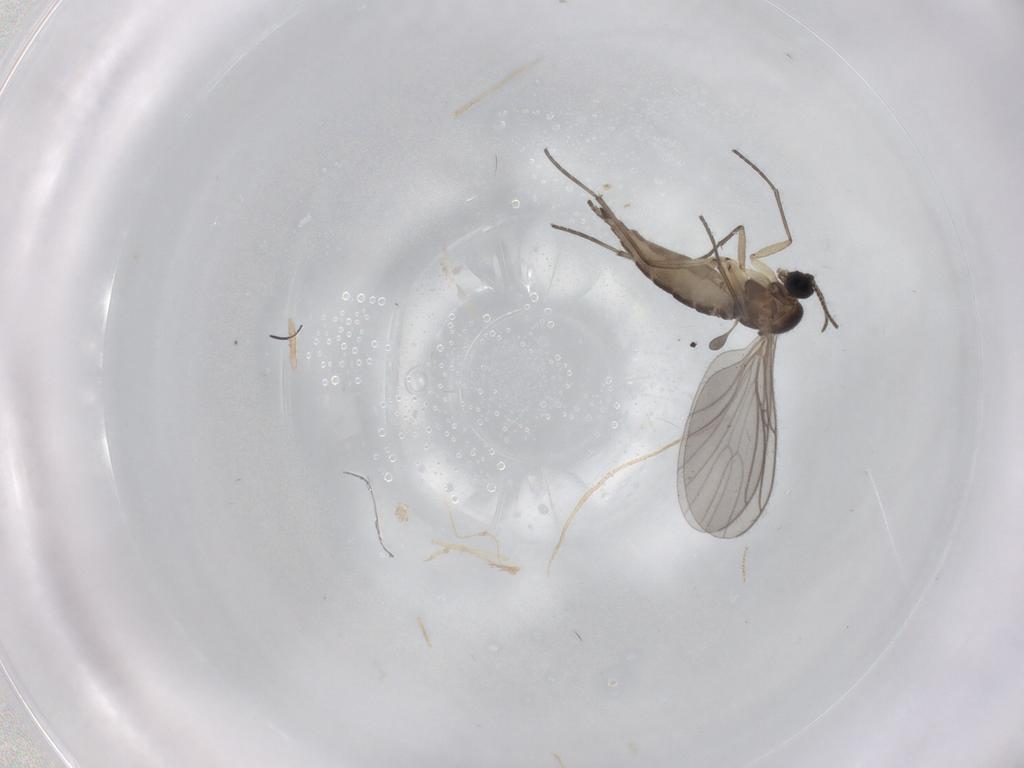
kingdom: Animalia
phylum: Arthropoda
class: Insecta
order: Diptera
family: Sciaridae
